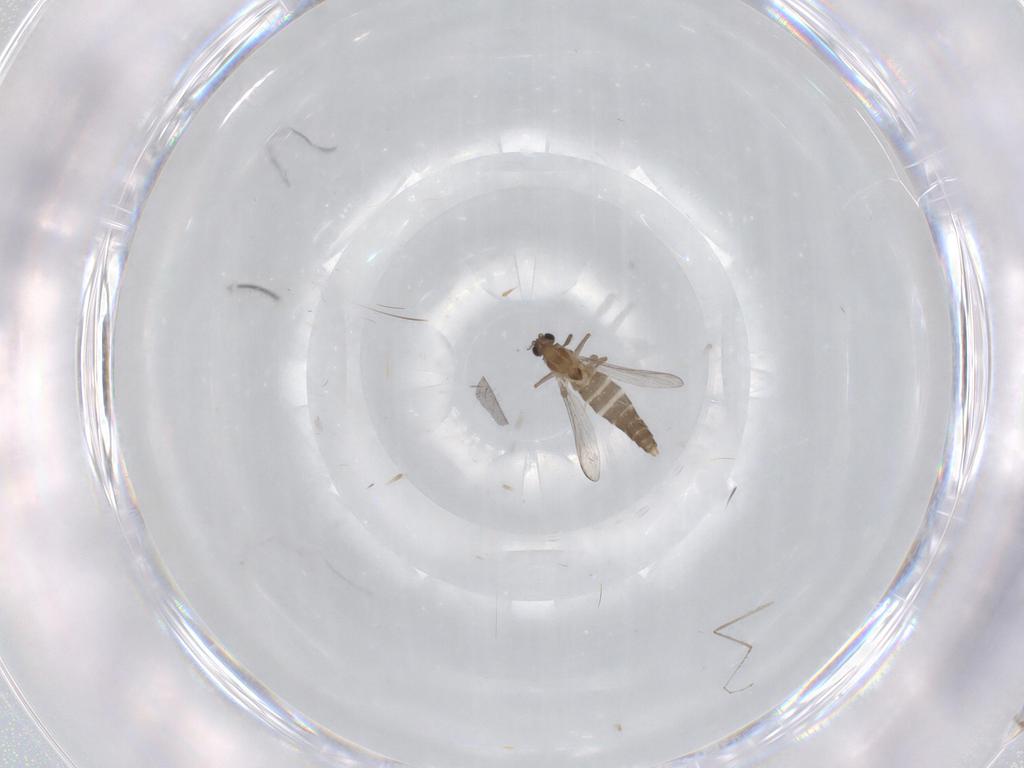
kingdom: Animalia
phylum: Arthropoda
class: Insecta
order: Diptera
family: Chironomidae
